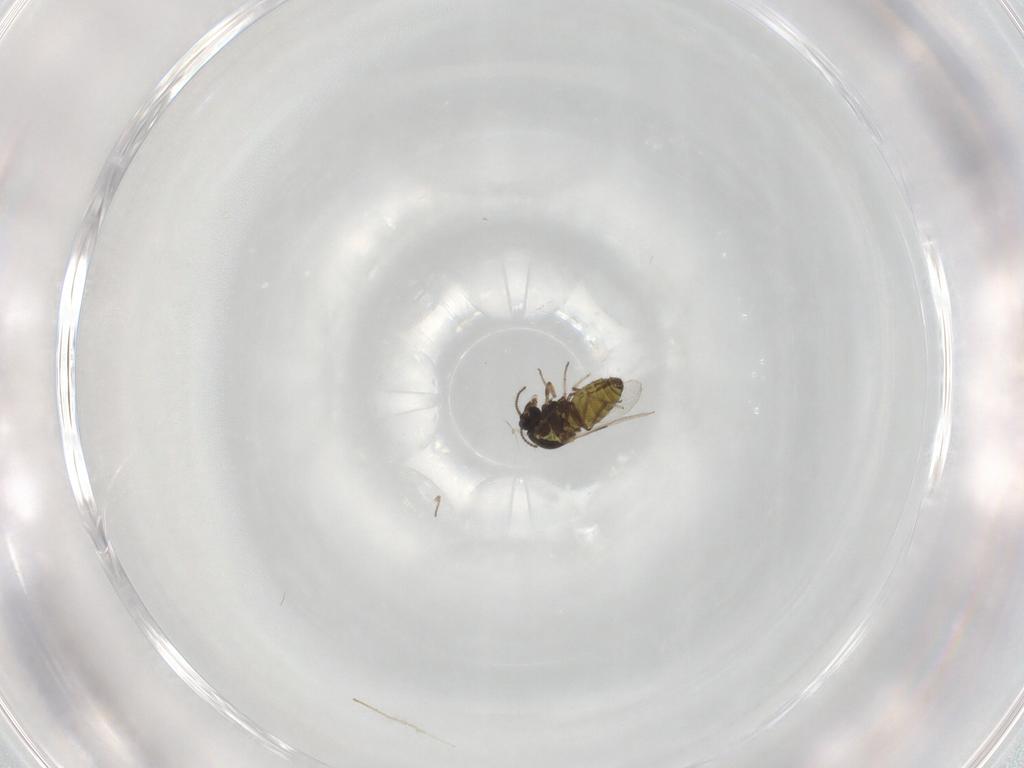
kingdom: Animalia
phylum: Arthropoda
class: Insecta
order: Diptera
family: Ceratopogonidae
